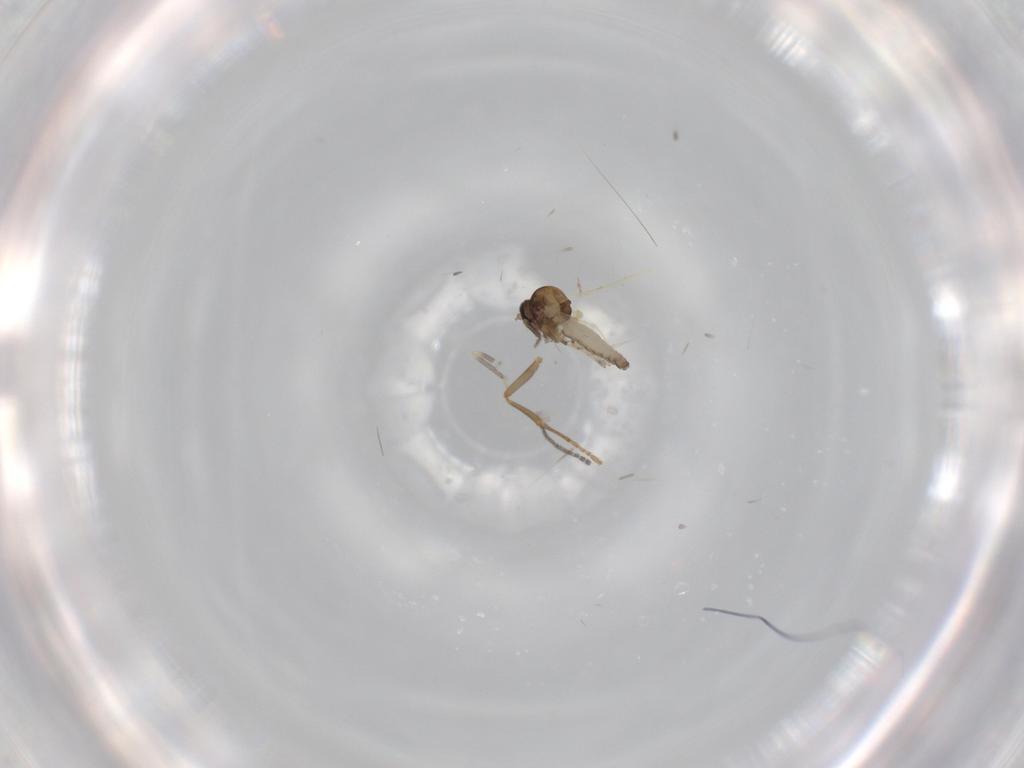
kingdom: Animalia
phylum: Arthropoda
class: Insecta
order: Diptera
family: Ceratopogonidae
